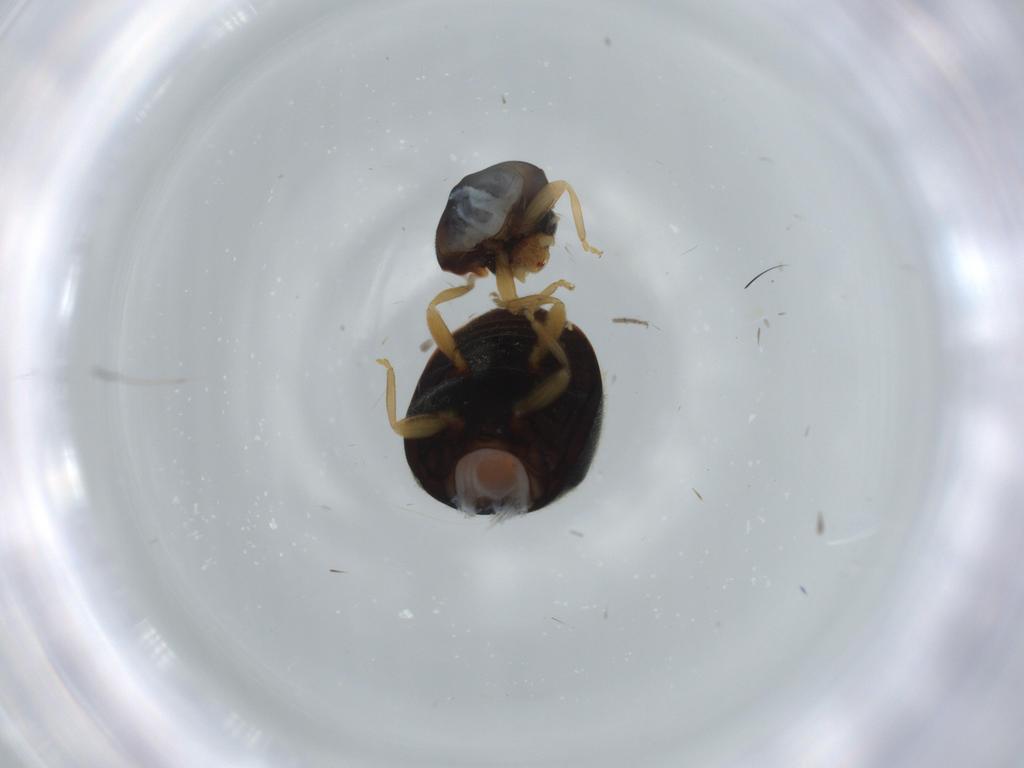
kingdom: Animalia
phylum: Arthropoda
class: Insecta
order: Coleoptera
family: Coccinellidae
